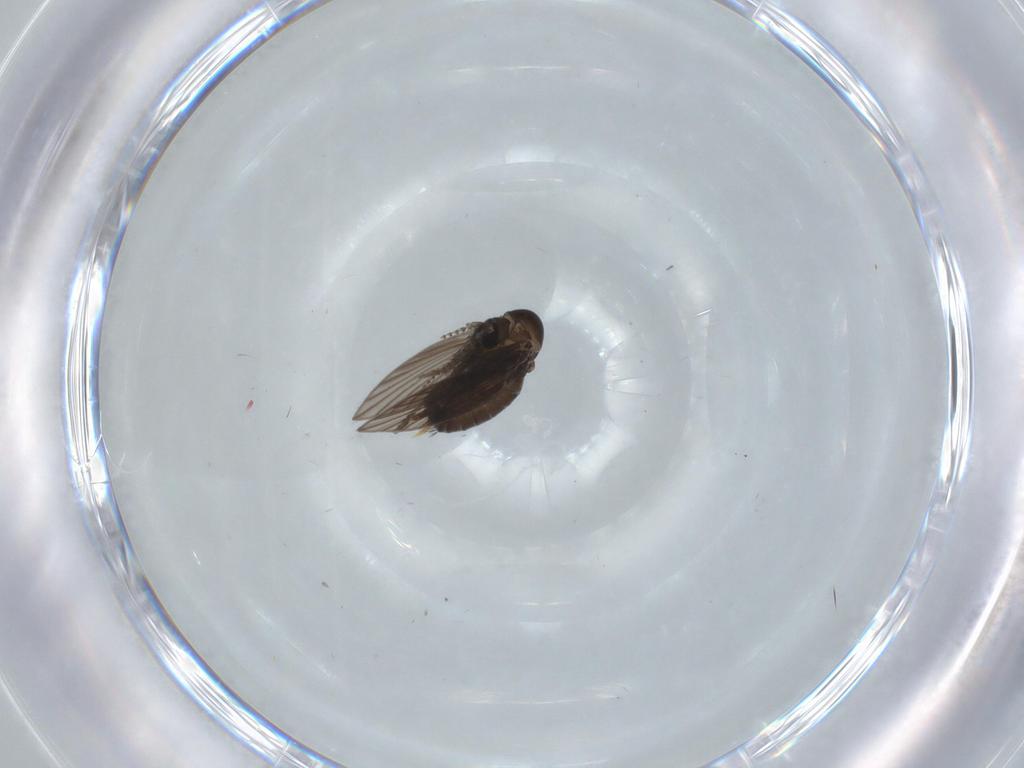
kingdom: Animalia
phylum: Arthropoda
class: Insecta
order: Diptera
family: Psychodidae
